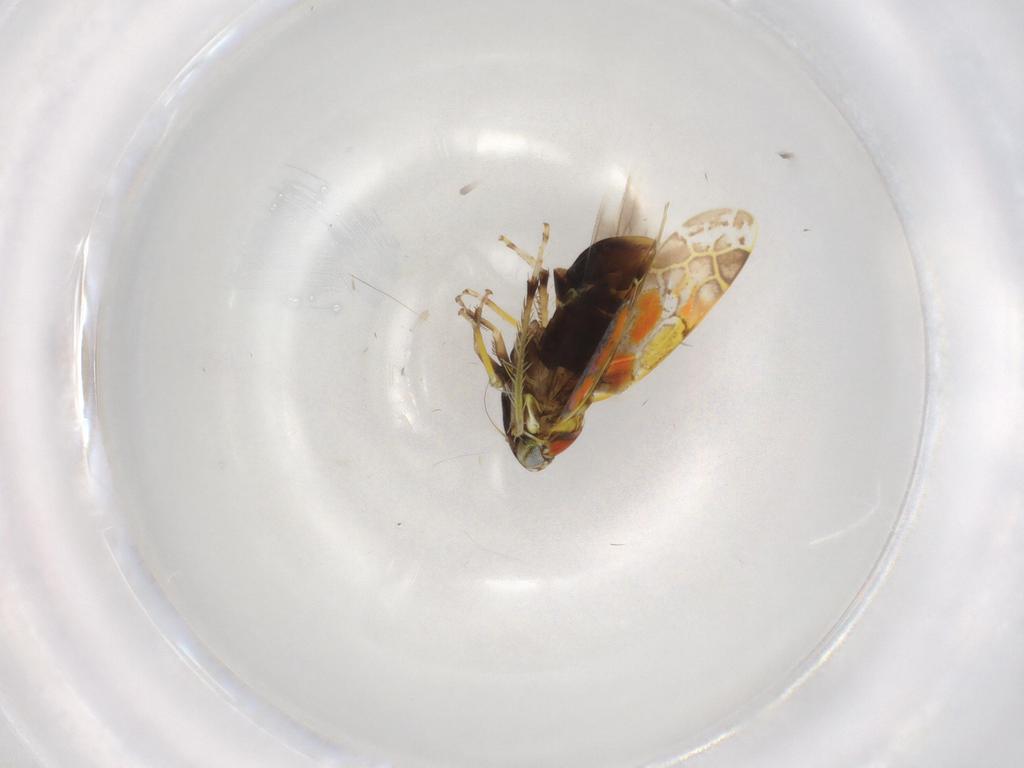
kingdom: Animalia
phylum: Arthropoda
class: Insecta
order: Hemiptera
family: Cicadellidae
